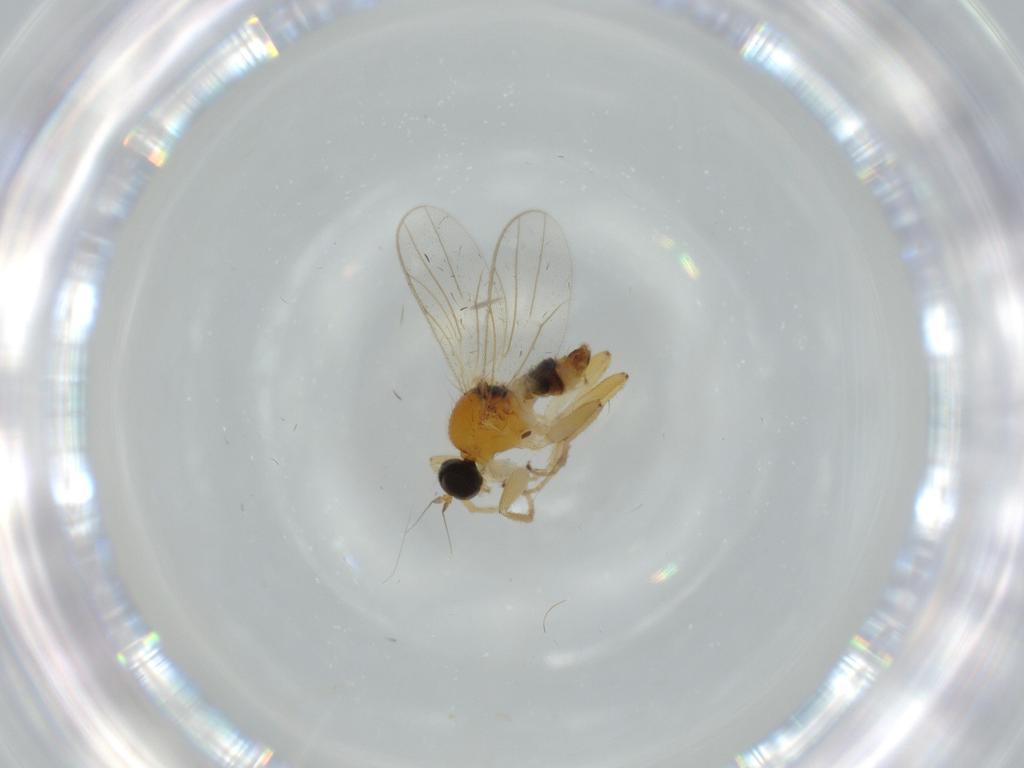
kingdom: Animalia
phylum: Arthropoda
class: Insecta
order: Diptera
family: Hybotidae
